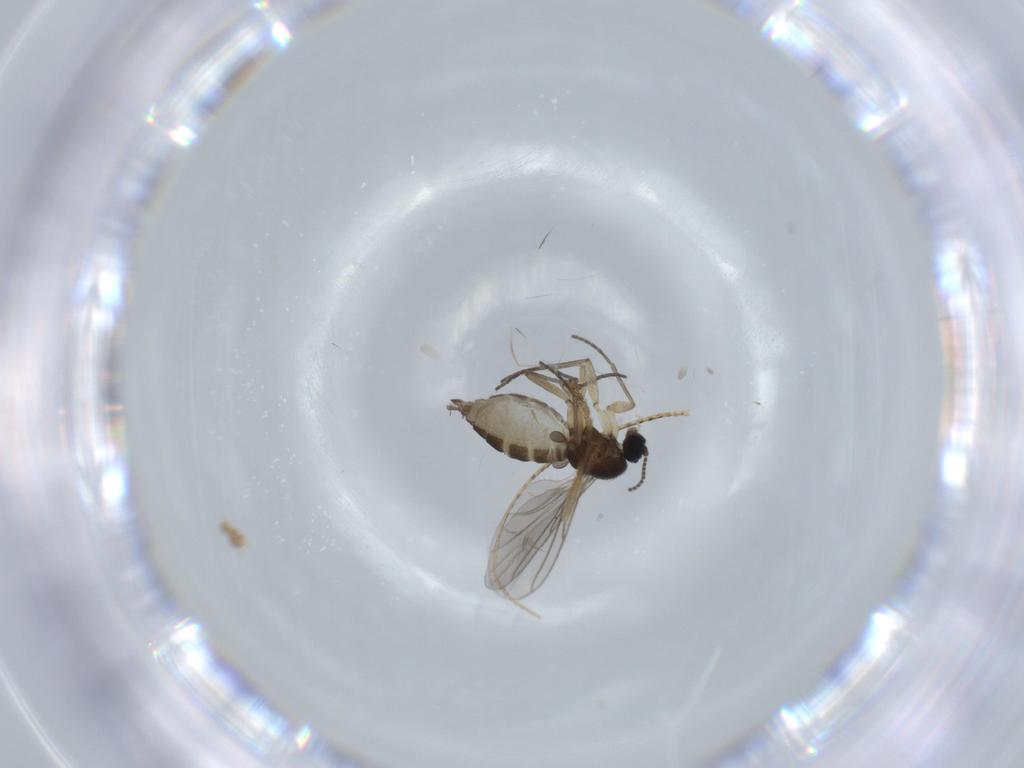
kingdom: Animalia
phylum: Arthropoda
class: Insecta
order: Diptera
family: Sciaridae
